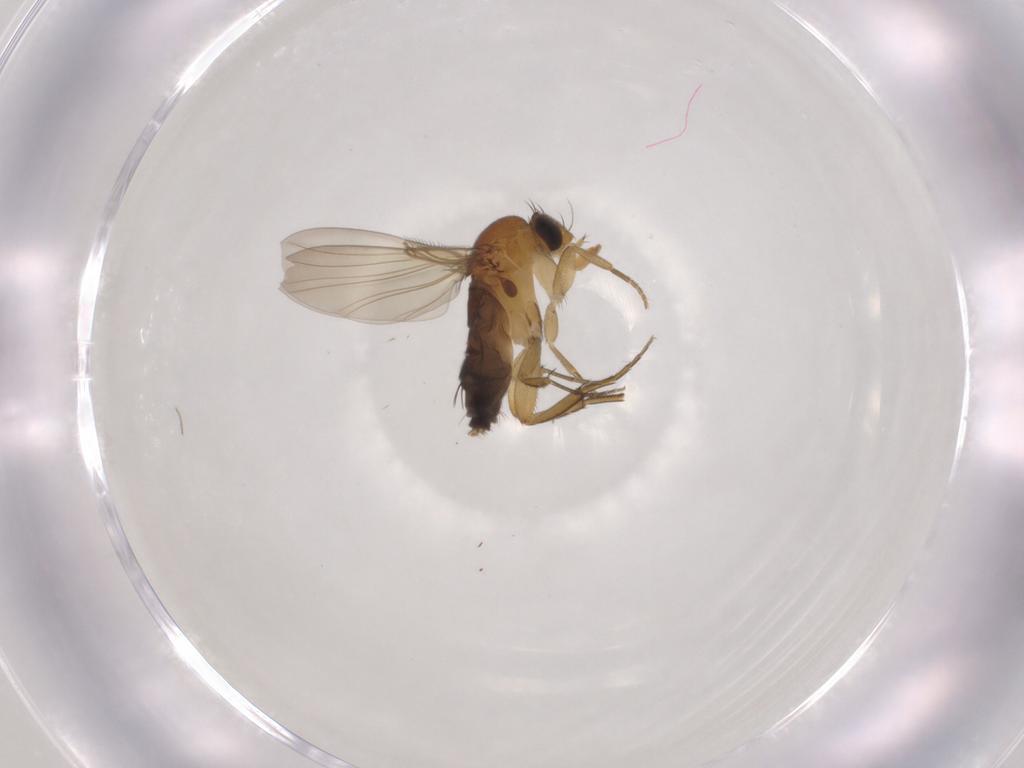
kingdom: Animalia
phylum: Arthropoda
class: Insecta
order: Diptera
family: Phoridae
